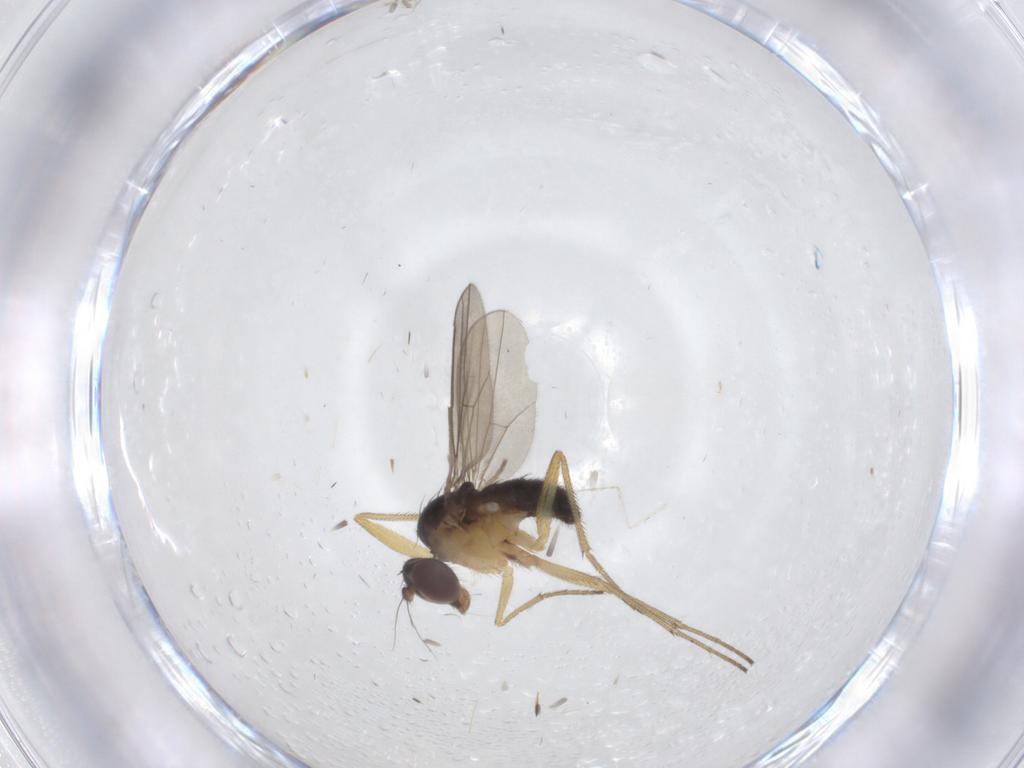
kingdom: Animalia
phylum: Arthropoda
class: Insecta
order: Diptera
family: Dolichopodidae
